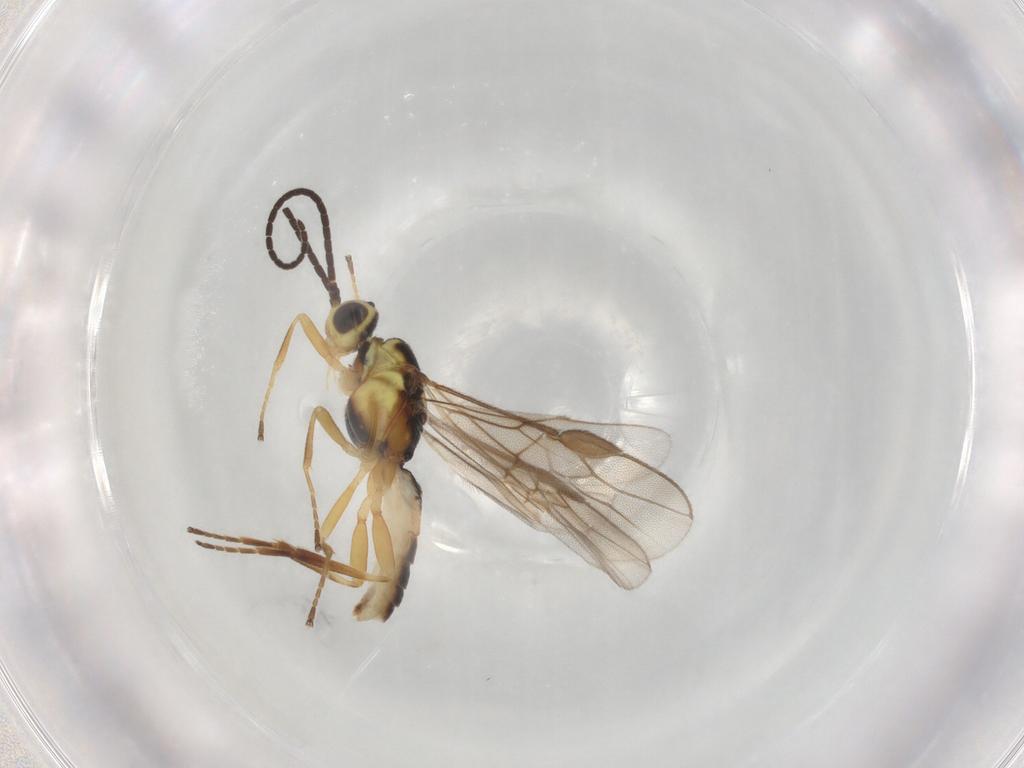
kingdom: Animalia
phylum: Arthropoda
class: Insecta
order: Hymenoptera
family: Braconidae
